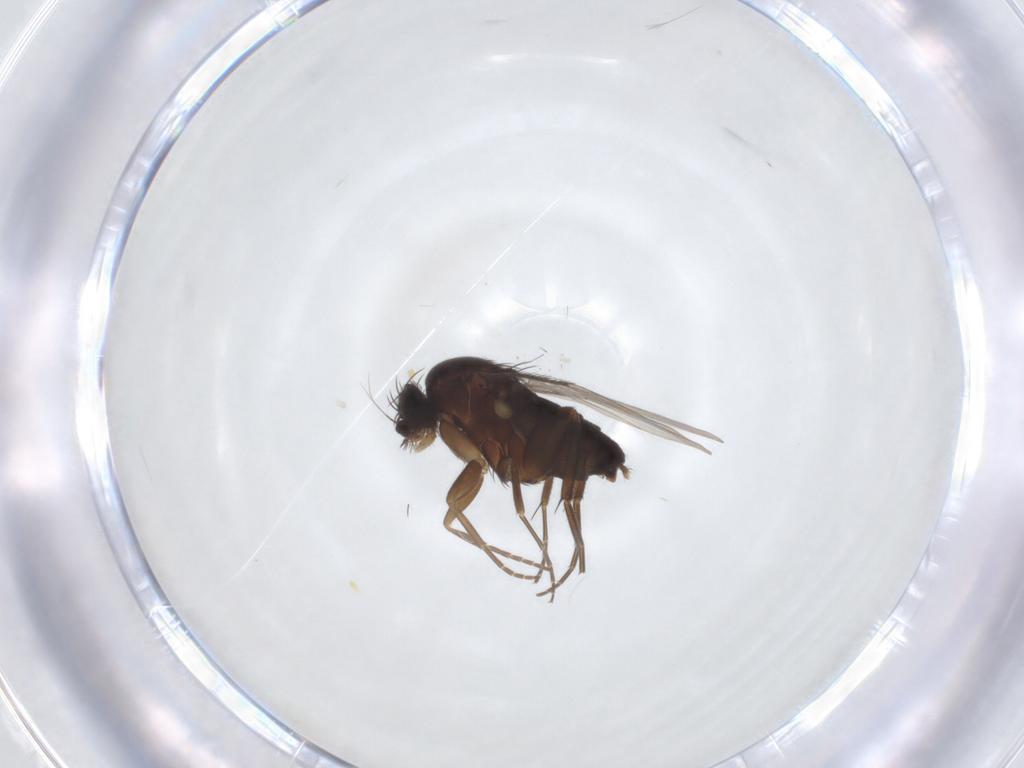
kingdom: Animalia
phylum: Arthropoda
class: Insecta
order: Diptera
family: Phoridae
